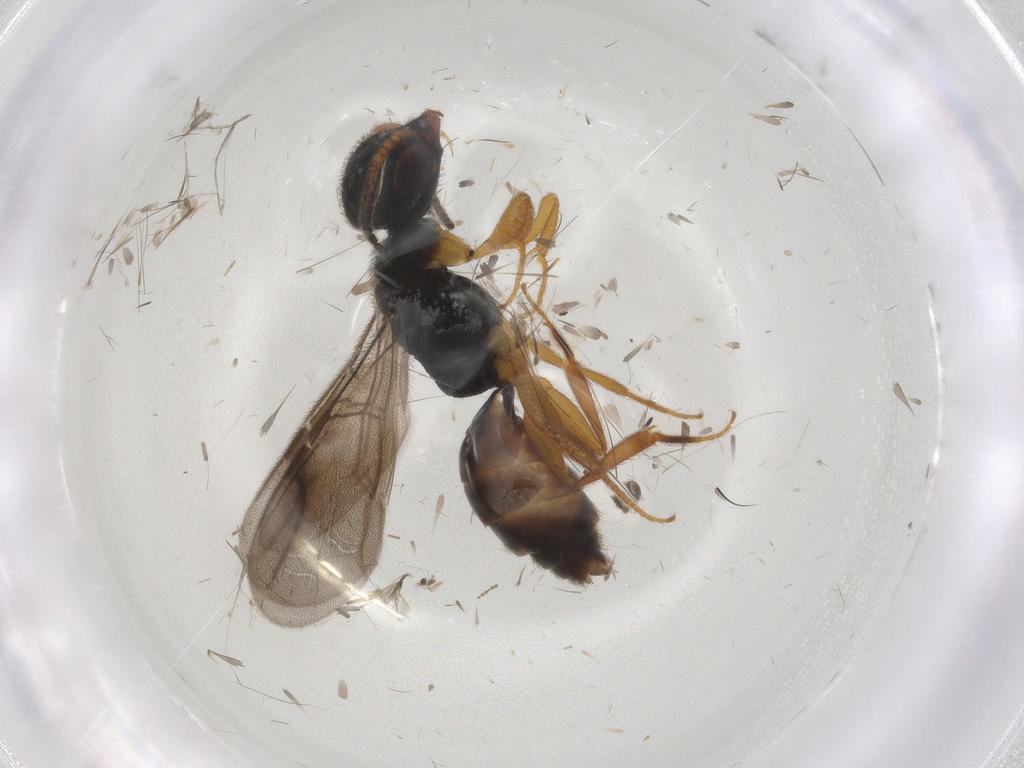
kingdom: Animalia
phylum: Arthropoda
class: Insecta
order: Hymenoptera
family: Bethylidae
